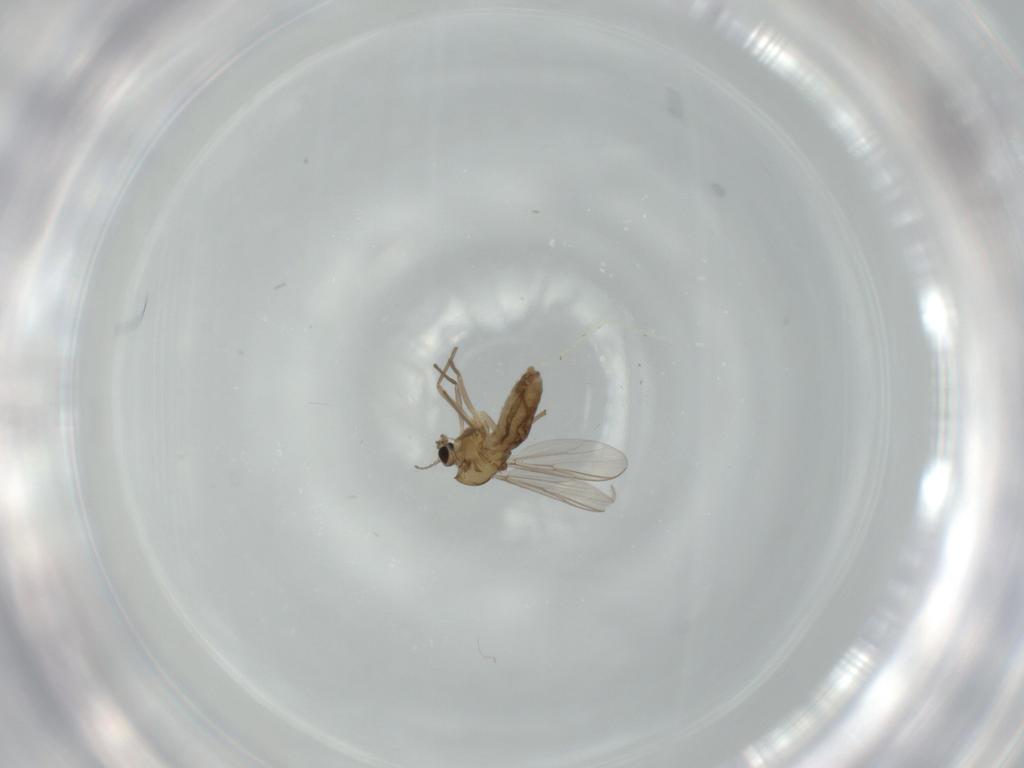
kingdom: Animalia
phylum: Arthropoda
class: Insecta
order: Diptera
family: Chironomidae
